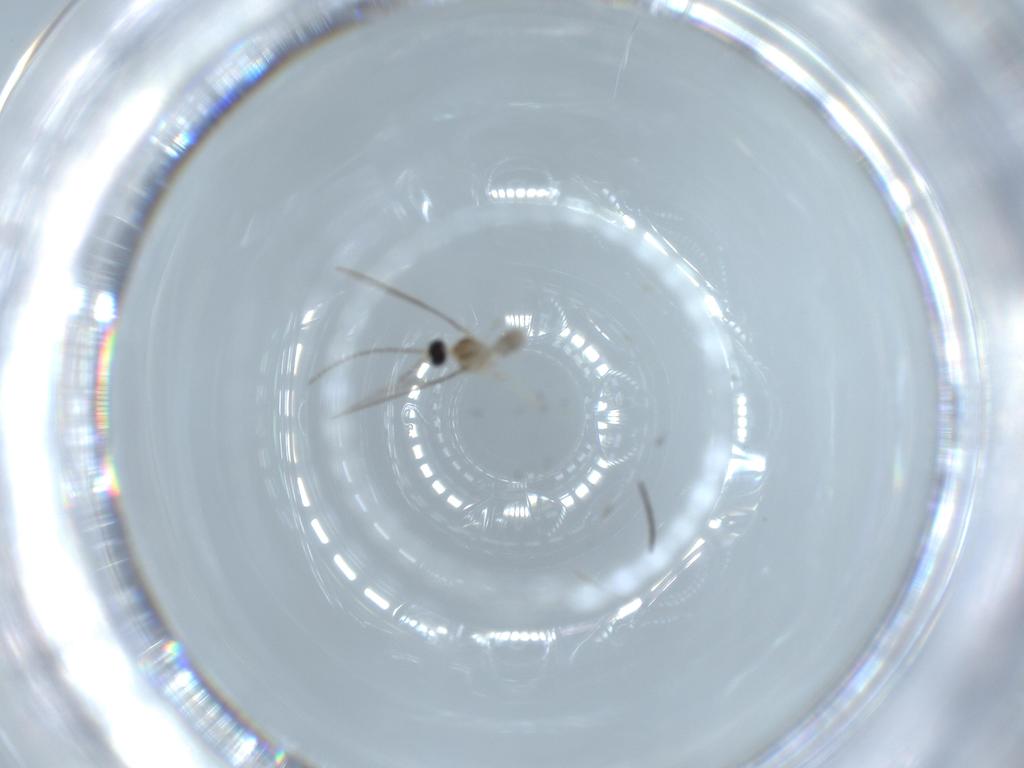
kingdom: Animalia
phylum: Arthropoda
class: Insecta
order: Diptera
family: Cecidomyiidae
